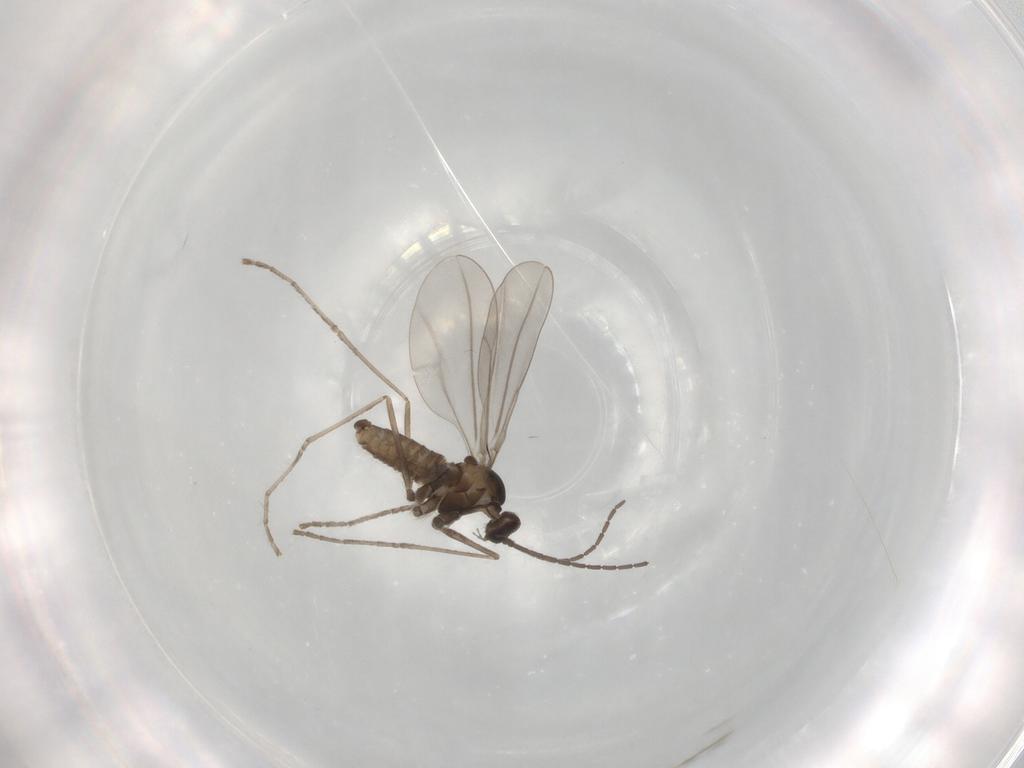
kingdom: Animalia
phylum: Arthropoda
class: Insecta
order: Diptera
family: Cecidomyiidae
